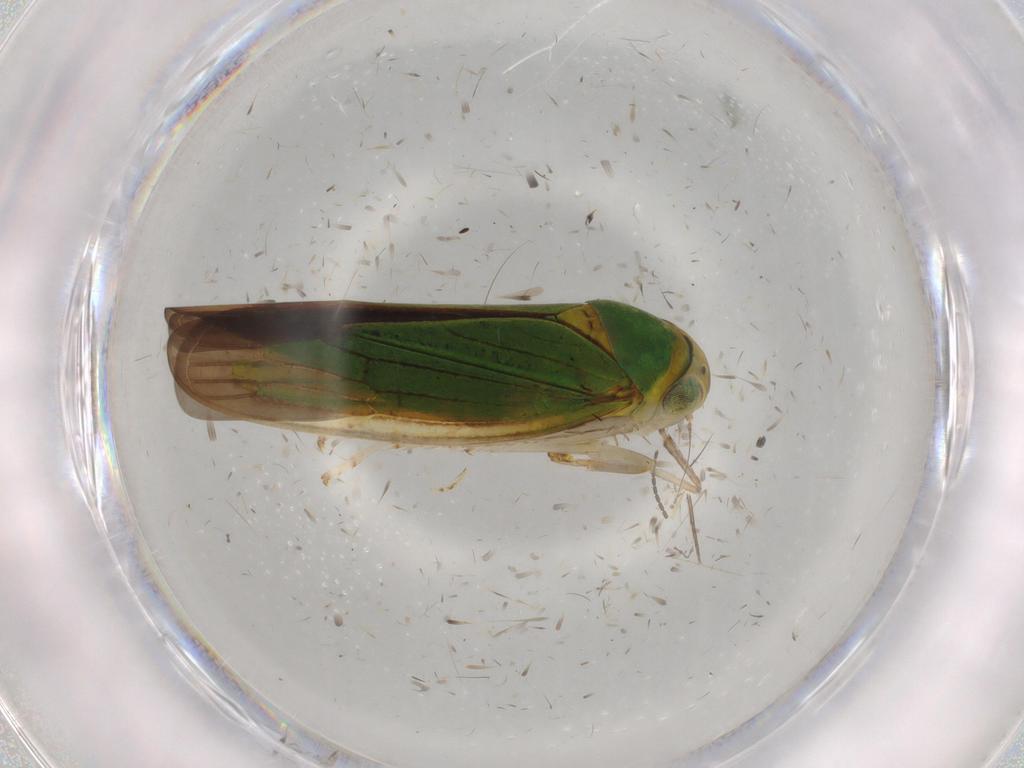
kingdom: Animalia
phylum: Arthropoda
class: Insecta
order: Hemiptera
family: Cicadellidae
